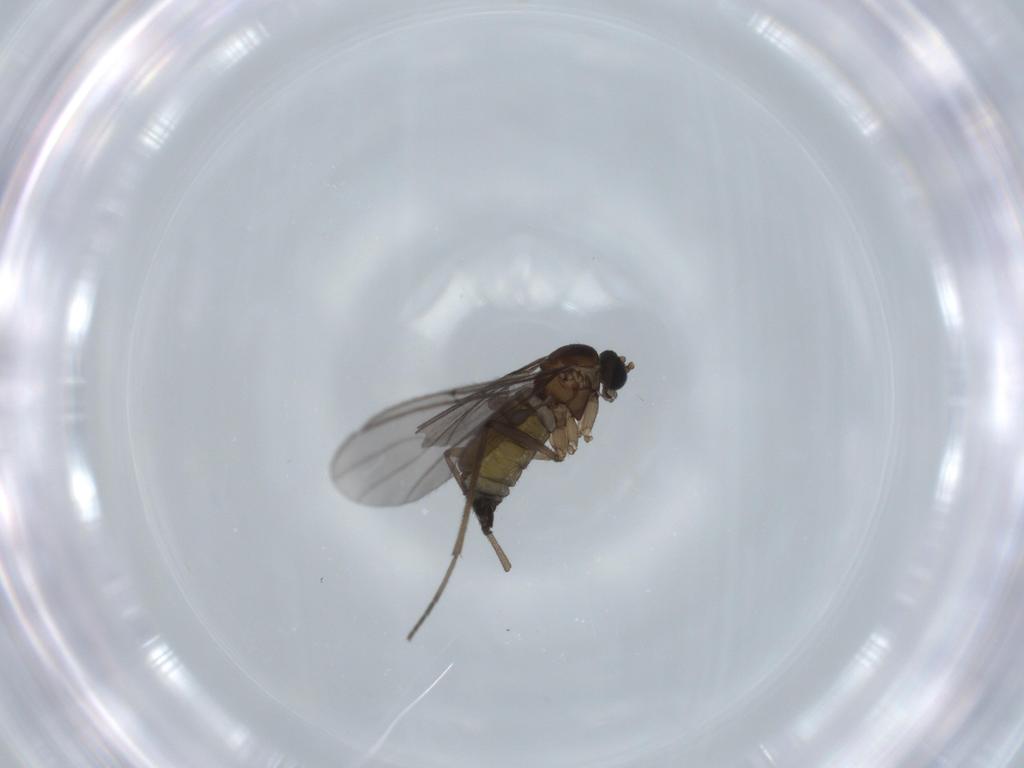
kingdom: Animalia
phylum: Arthropoda
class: Insecta
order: Diptera
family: Sciaridae
